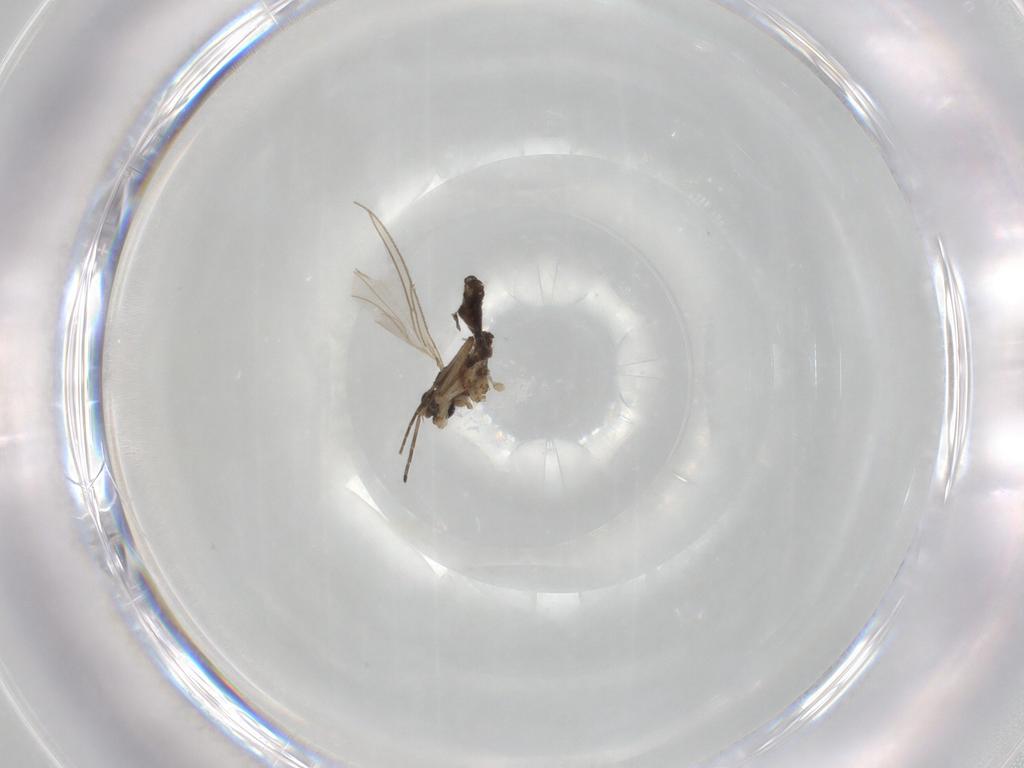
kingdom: Animalia
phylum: Arthropoda
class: Insecta
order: Diptera
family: Sciaridae
